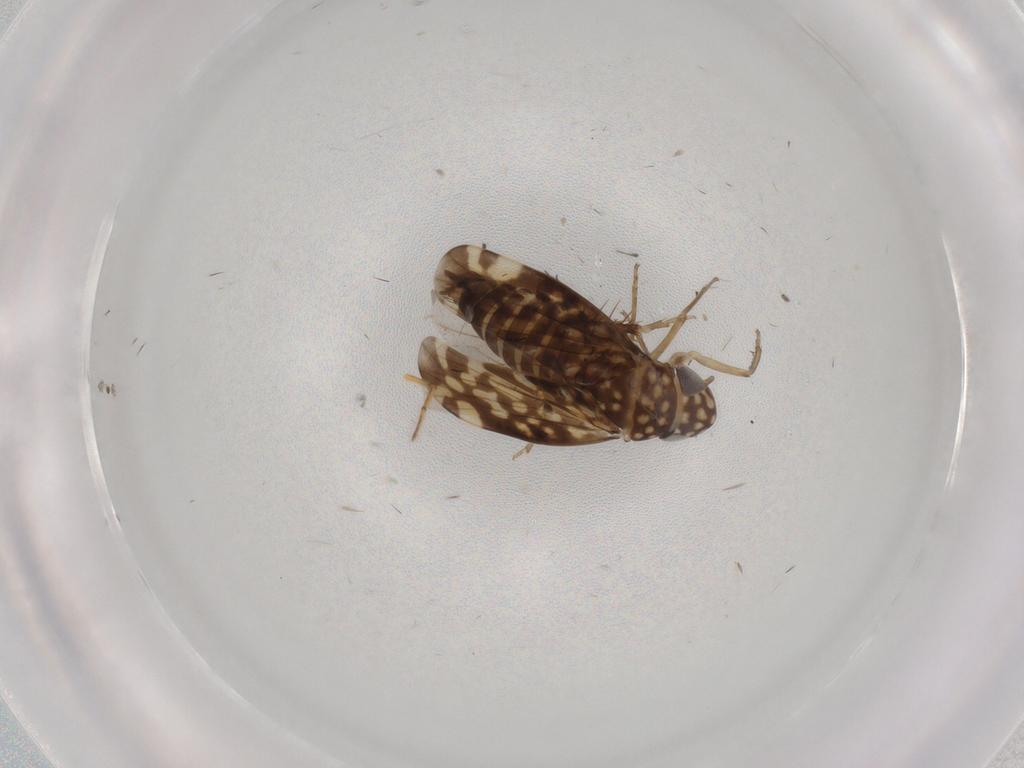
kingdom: Animalia
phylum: Arthropoda
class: Insecta
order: Hemiptera
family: Cicadellidae
